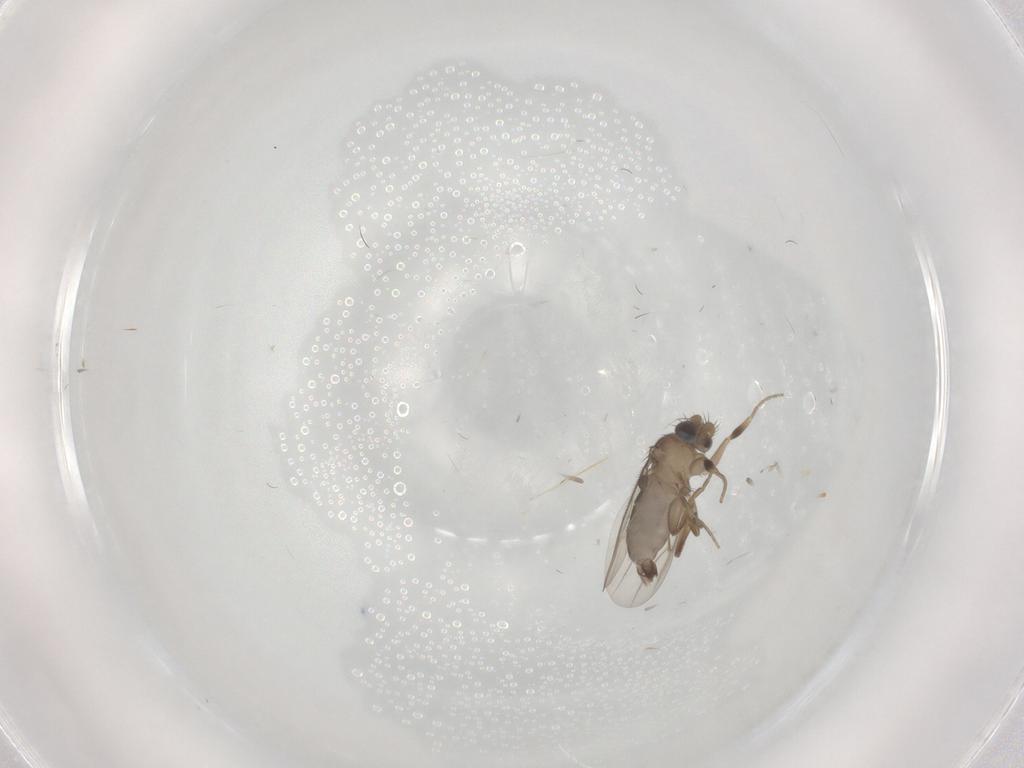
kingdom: Animalia
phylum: Arthropoda
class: Insecta
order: Diptera
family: Phoridae
